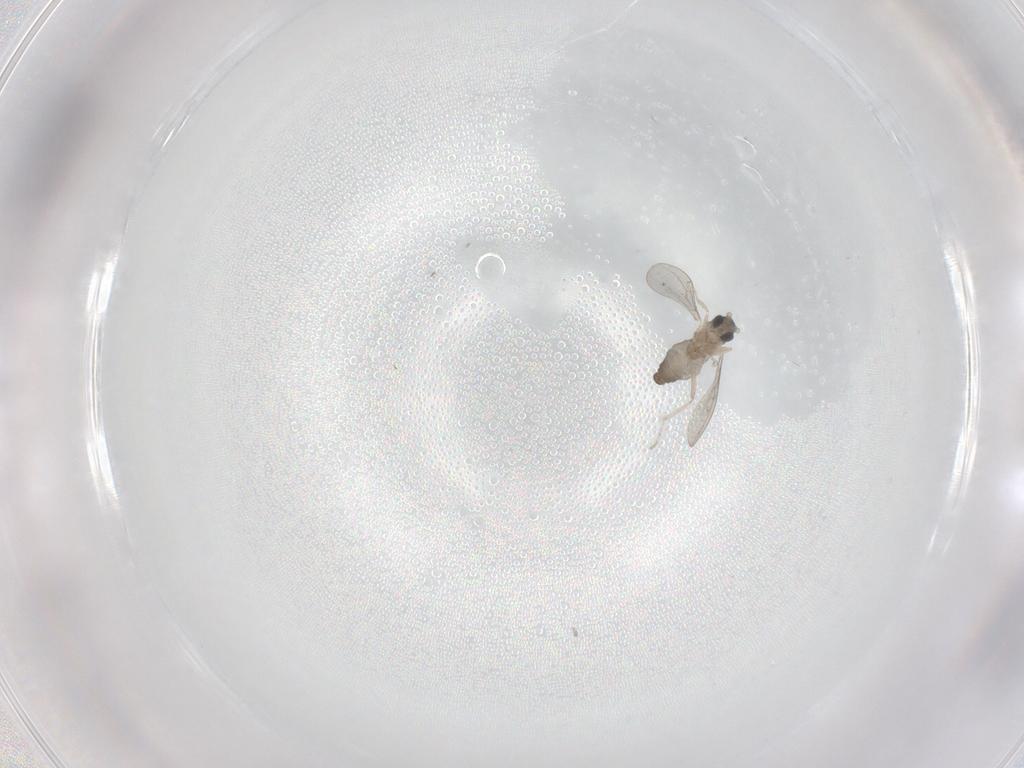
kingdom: Animalia
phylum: Arthropoda
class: Insecta
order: Diptera
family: Cecidomyiidae
